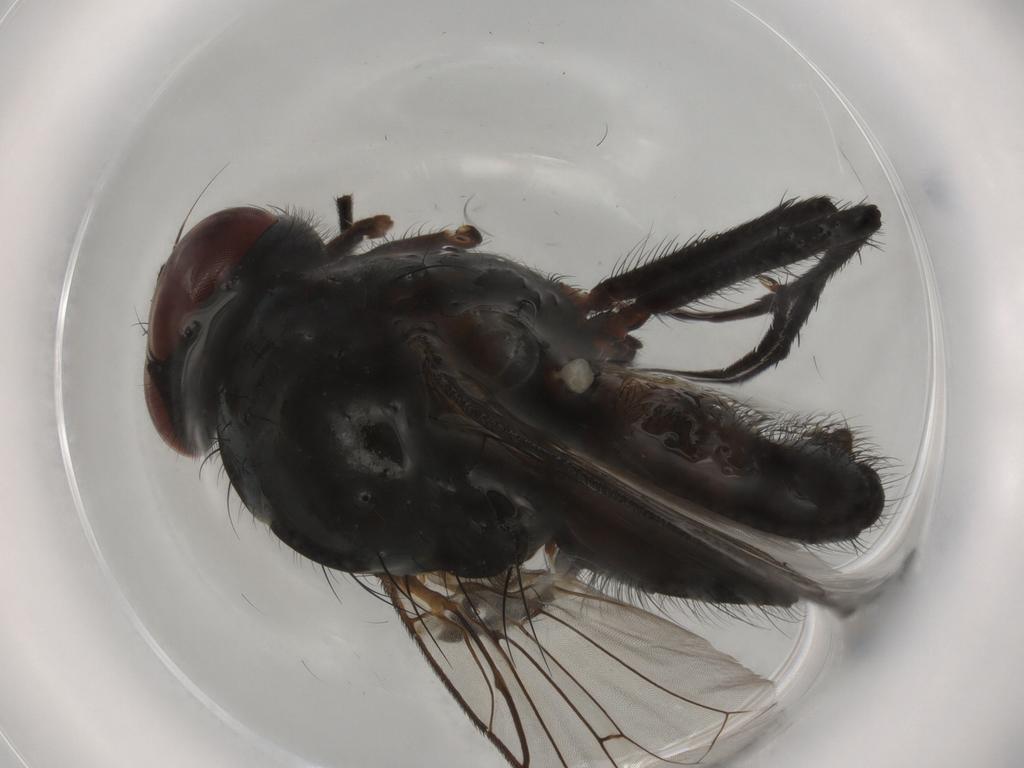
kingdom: Animalia
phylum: Arthropoda
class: Insecta
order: Diptera
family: Anthomyiidae
